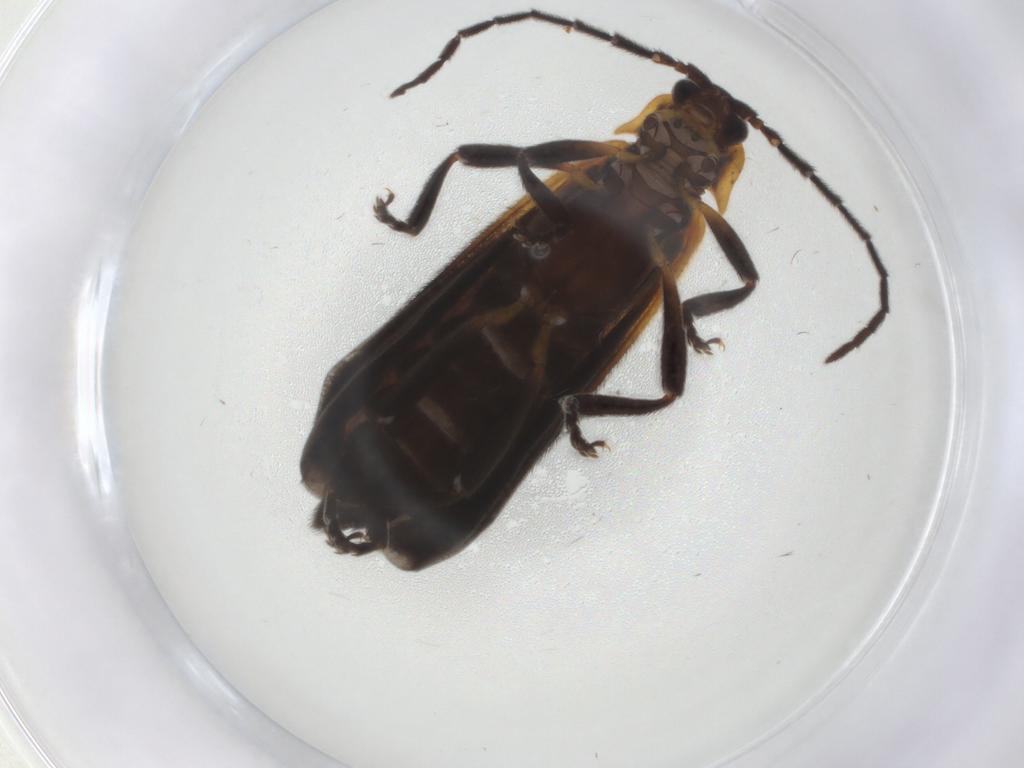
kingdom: Animalia
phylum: Arthropoda
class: Insecta
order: Coleoptera
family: Lycidae
